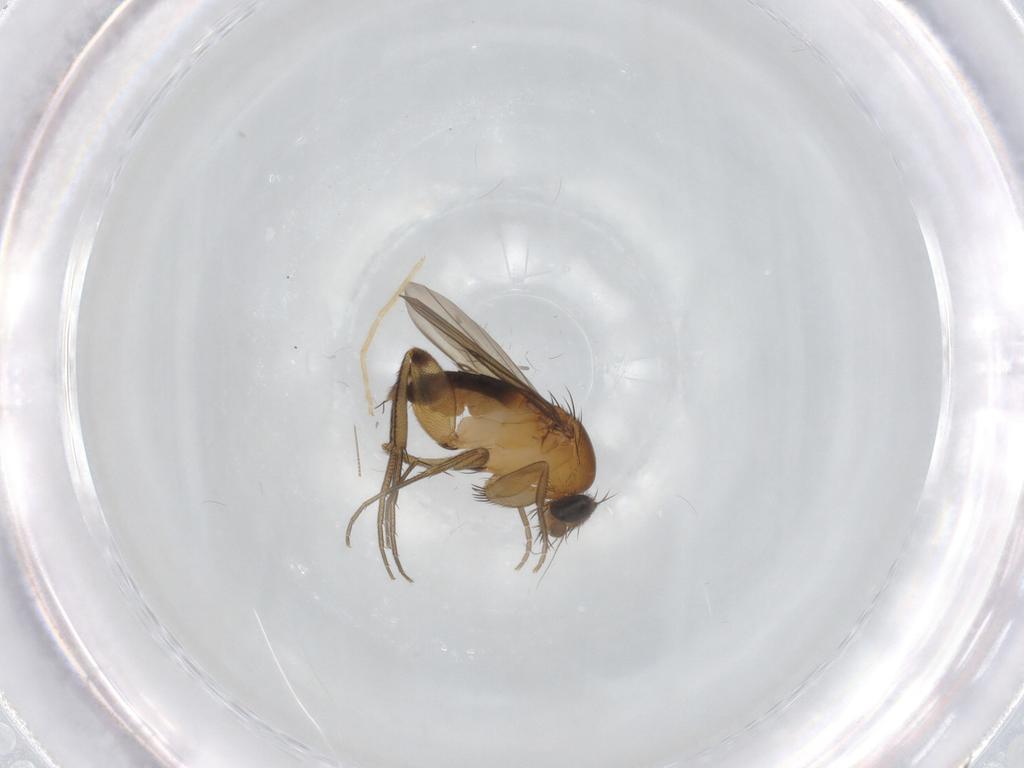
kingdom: Animalia
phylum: Arthropoda
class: Insecta
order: Diptera
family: Phoridae
